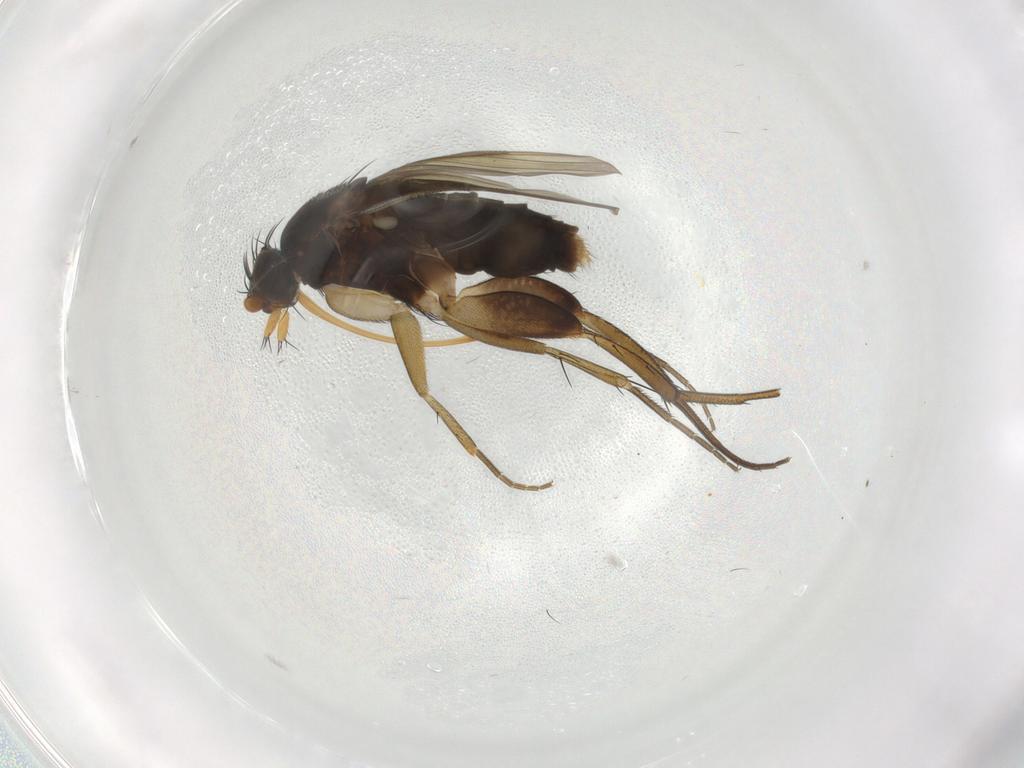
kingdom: Animalia
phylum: Arthropoda
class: Insecta
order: Diptera
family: Phoridae
